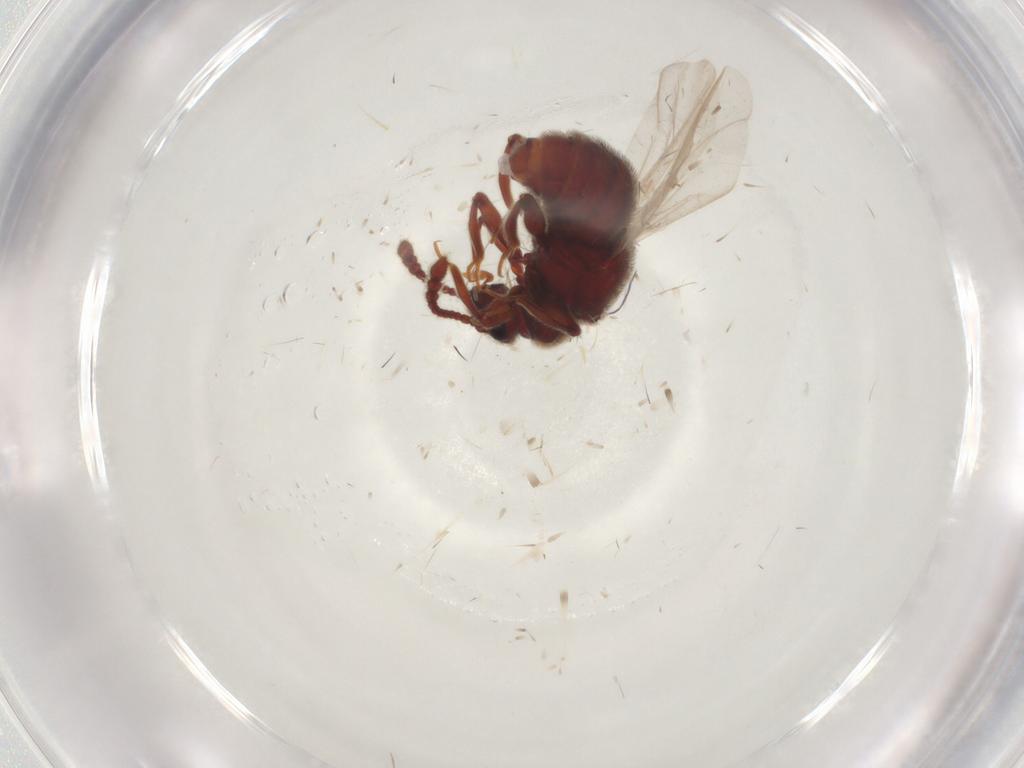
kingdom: Animalia
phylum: Arthropoda
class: Insecta
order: Coleoptera
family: Staphylinidae
